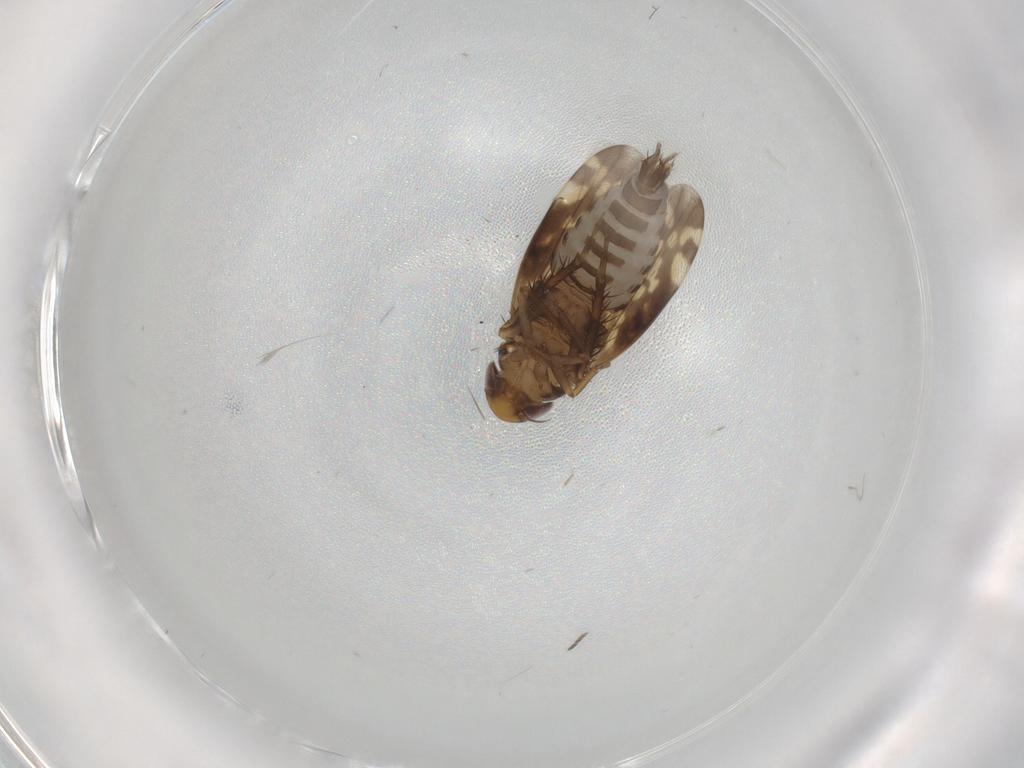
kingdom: Animalia
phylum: Arthropoda
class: Insecta
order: Hemiptera
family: Cicadellidae
